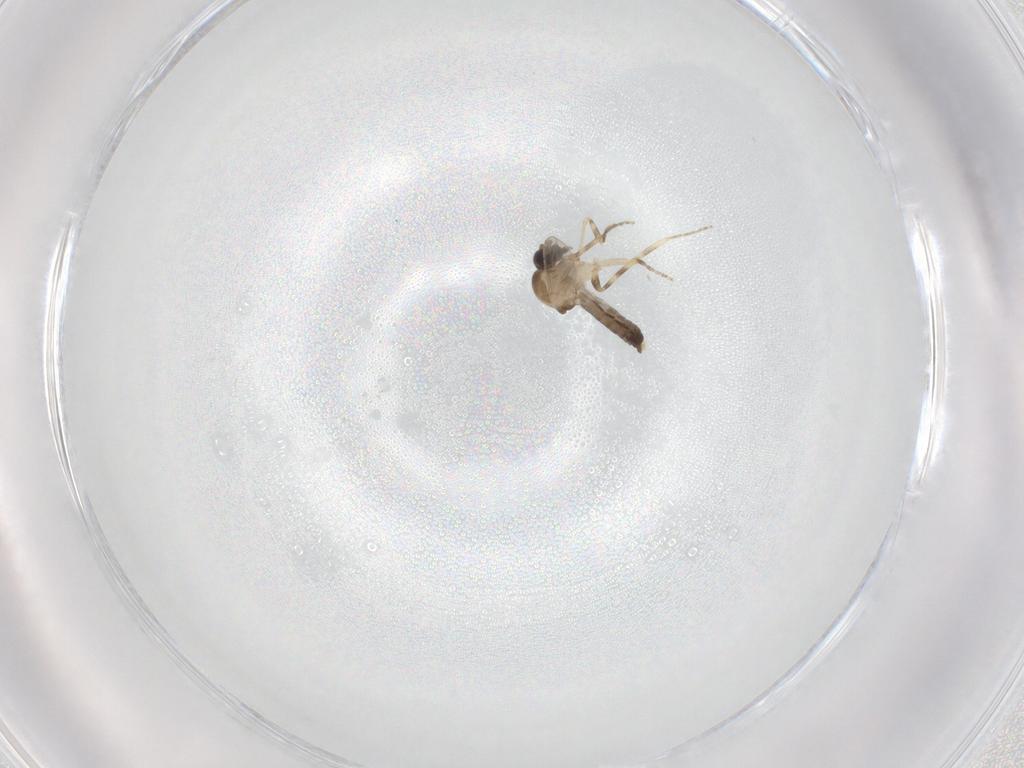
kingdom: Animalia
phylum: Arthropoda
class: Insecta
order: Diptera
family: Ceratopogonidae
